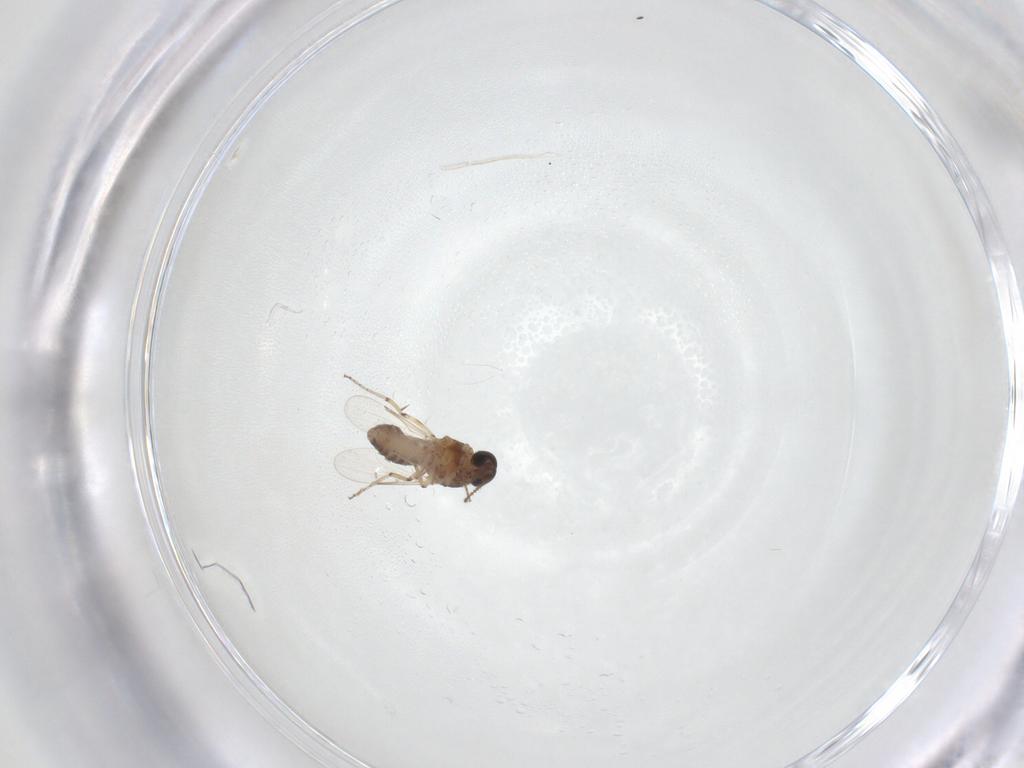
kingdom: Animalia
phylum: Arthropoda
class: Insecta
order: Diptera
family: Ceratopogonidae
